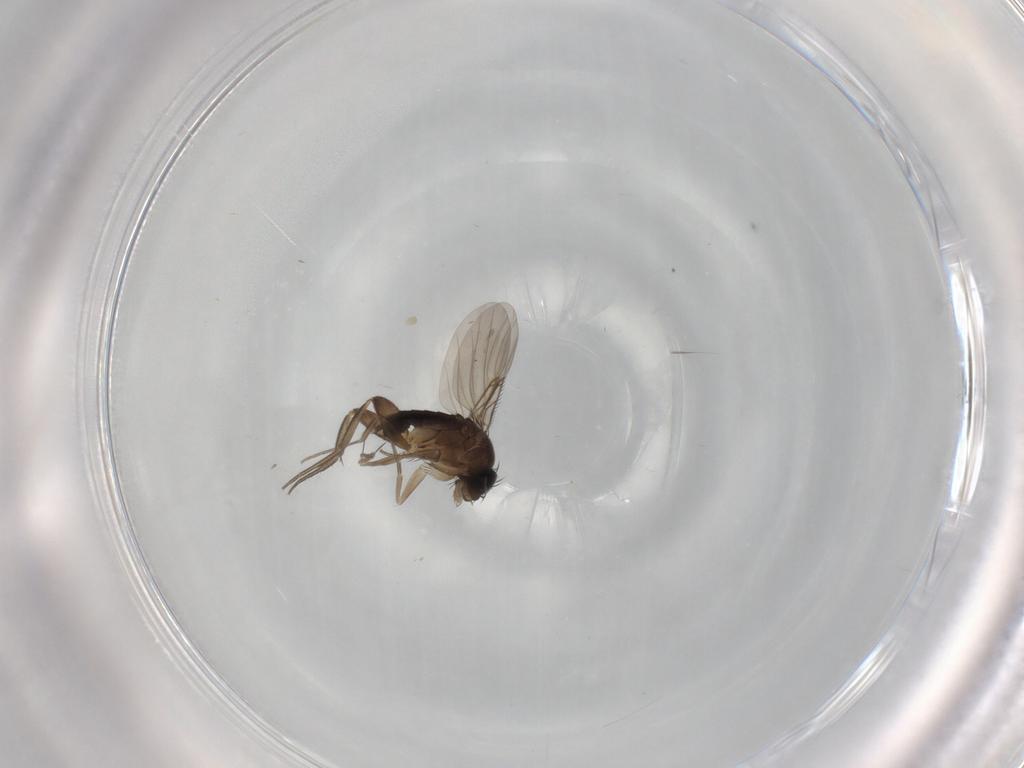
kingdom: Animalia
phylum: Arthropoda
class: Insecta
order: Diptera
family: Phoridae
